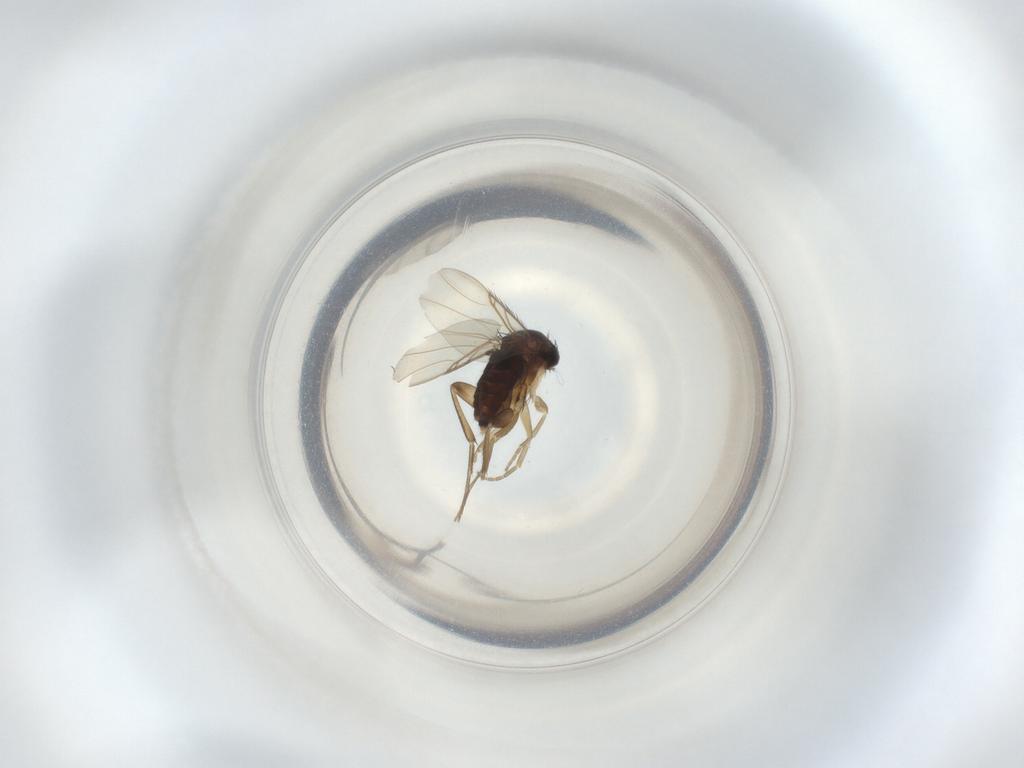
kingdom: Animalia
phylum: Arthropoda
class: Insecta
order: Diptera
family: Phoridae
